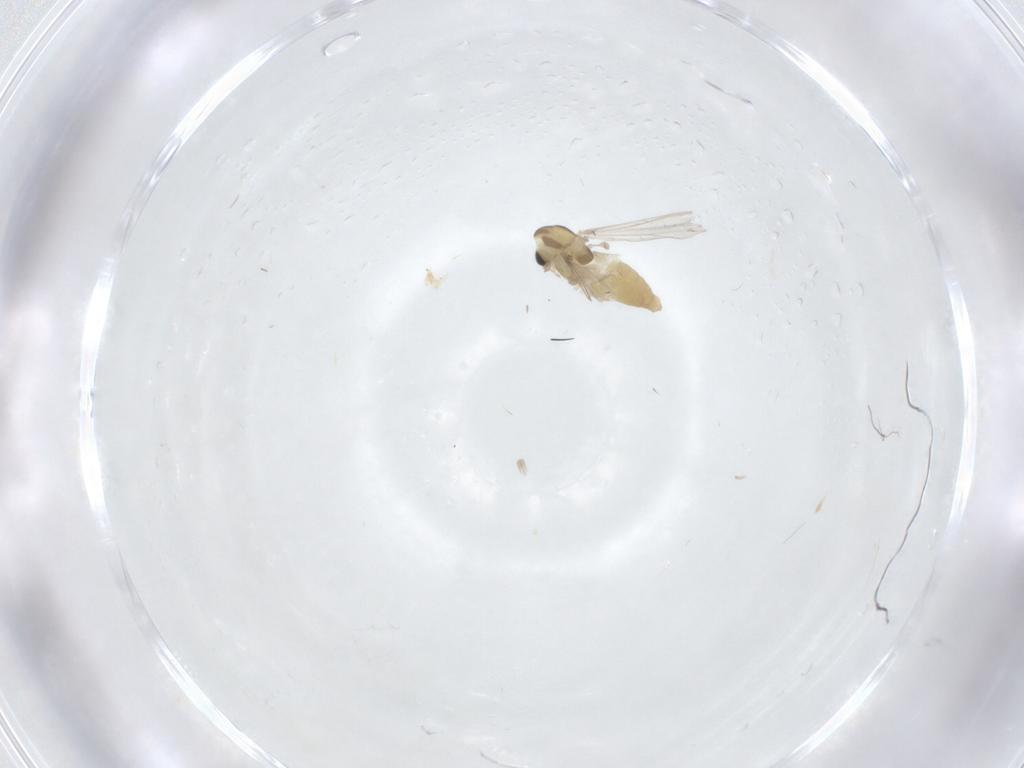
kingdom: Animalia
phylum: Arthropoda
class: Insecta
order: Diptera
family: Chironomidae
